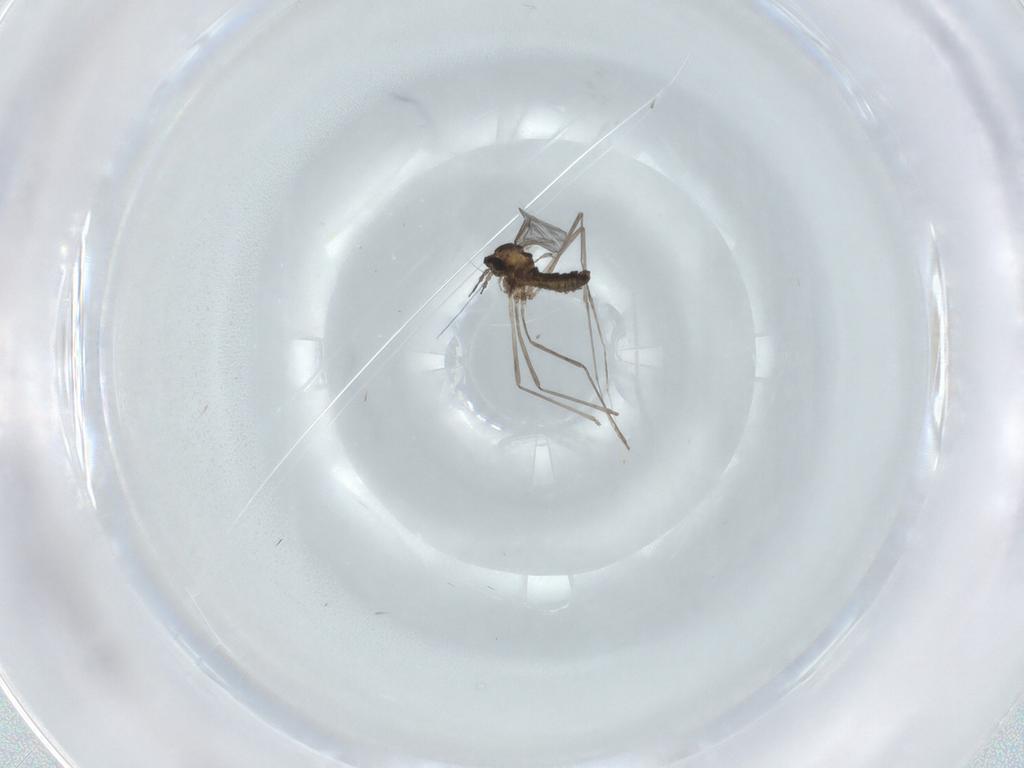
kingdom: Animalia
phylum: Arthropoda
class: Insecta
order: Diptera
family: Cecidomyiidae
